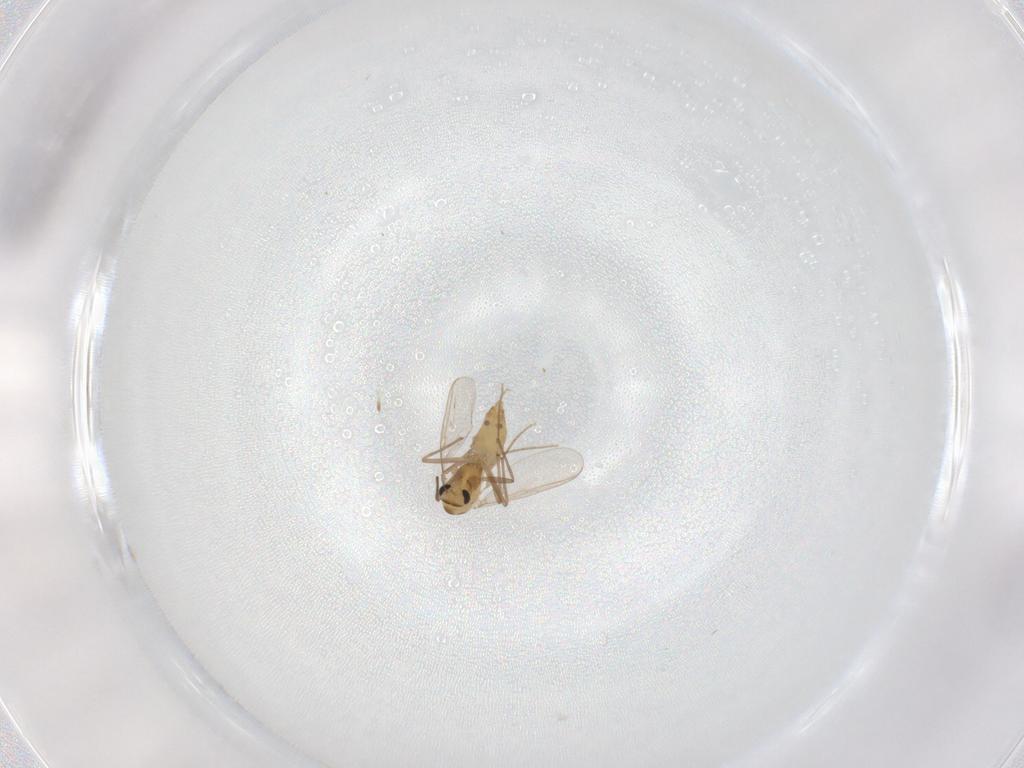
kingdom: Animalia
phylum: Arthropoda
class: Insecta
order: Diptera
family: Chironomidae
